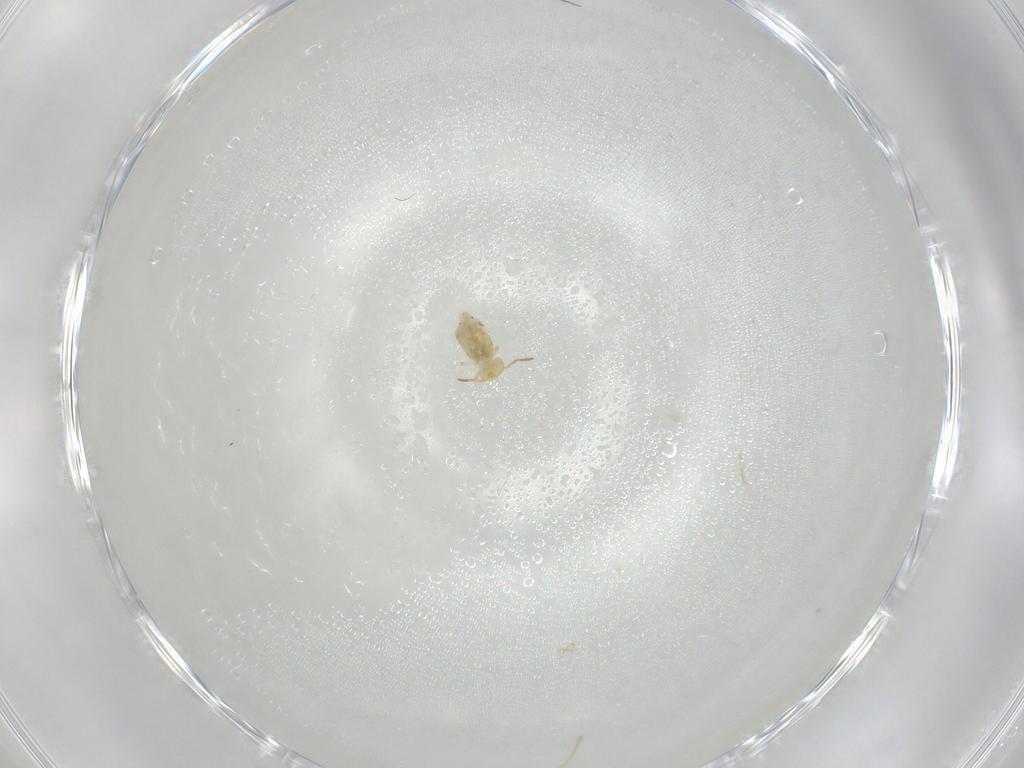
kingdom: Animalia
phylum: Arthropoda
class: Collembola
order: Symphypleona
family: Bourletiellidae
